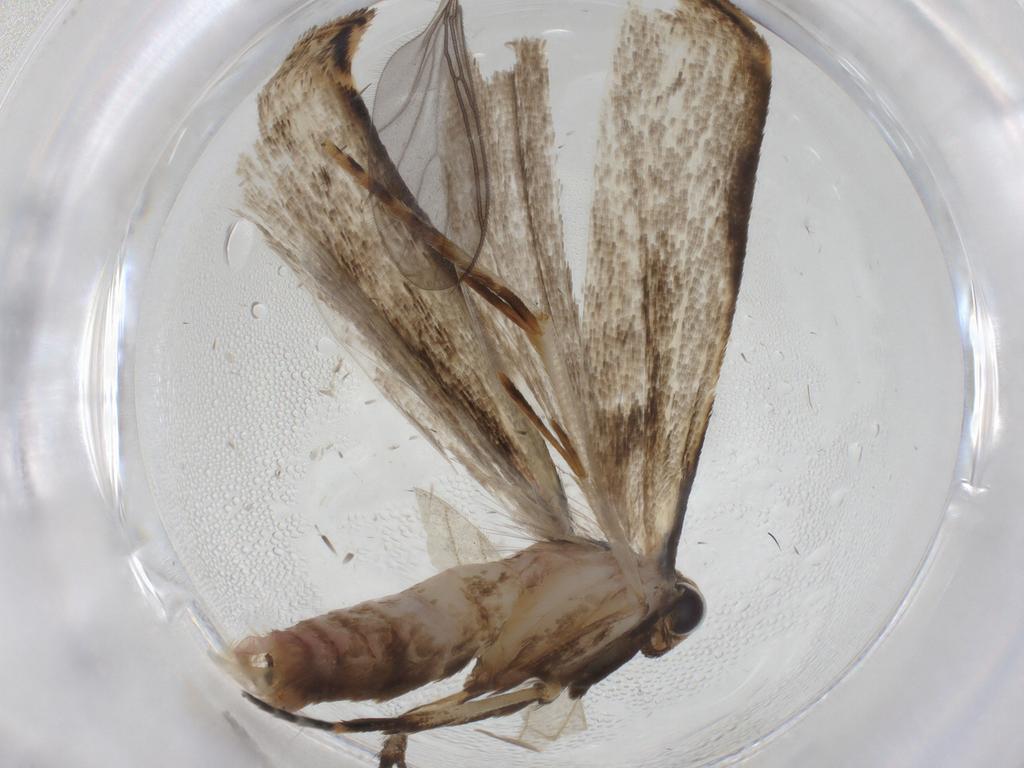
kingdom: Animalia
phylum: Arthropoda
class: Insecta
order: Lepidoptera
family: Gelechiidae
